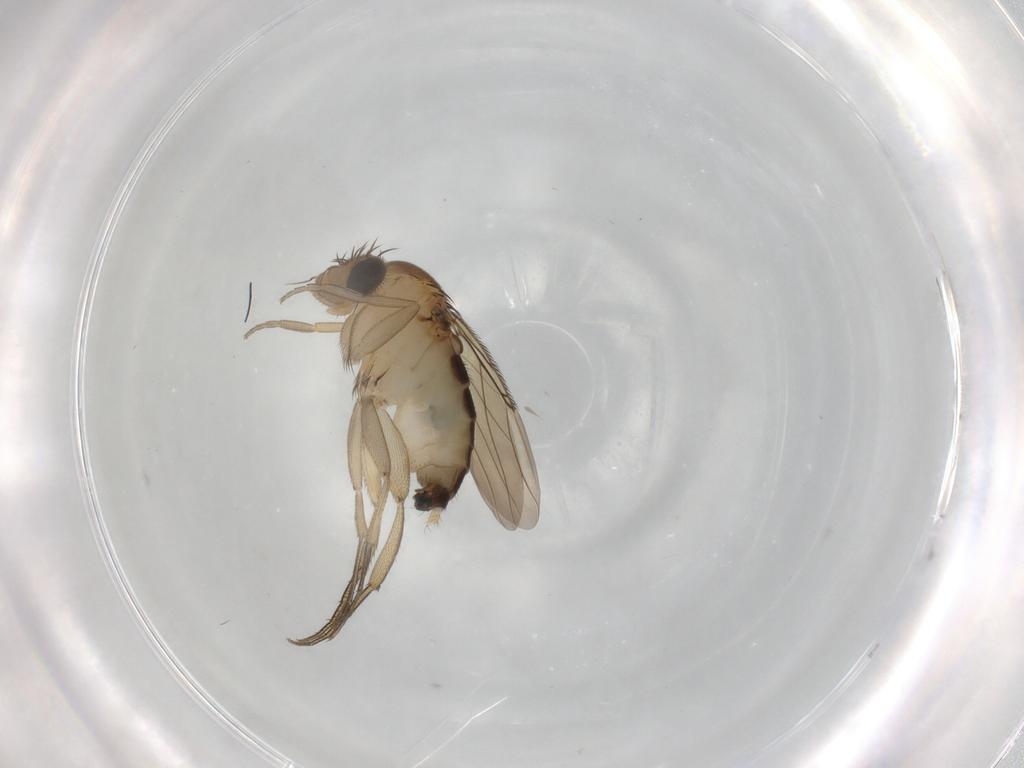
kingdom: Animalia
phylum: Arthropoda
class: Insecta
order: Diptera
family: Phoridae
